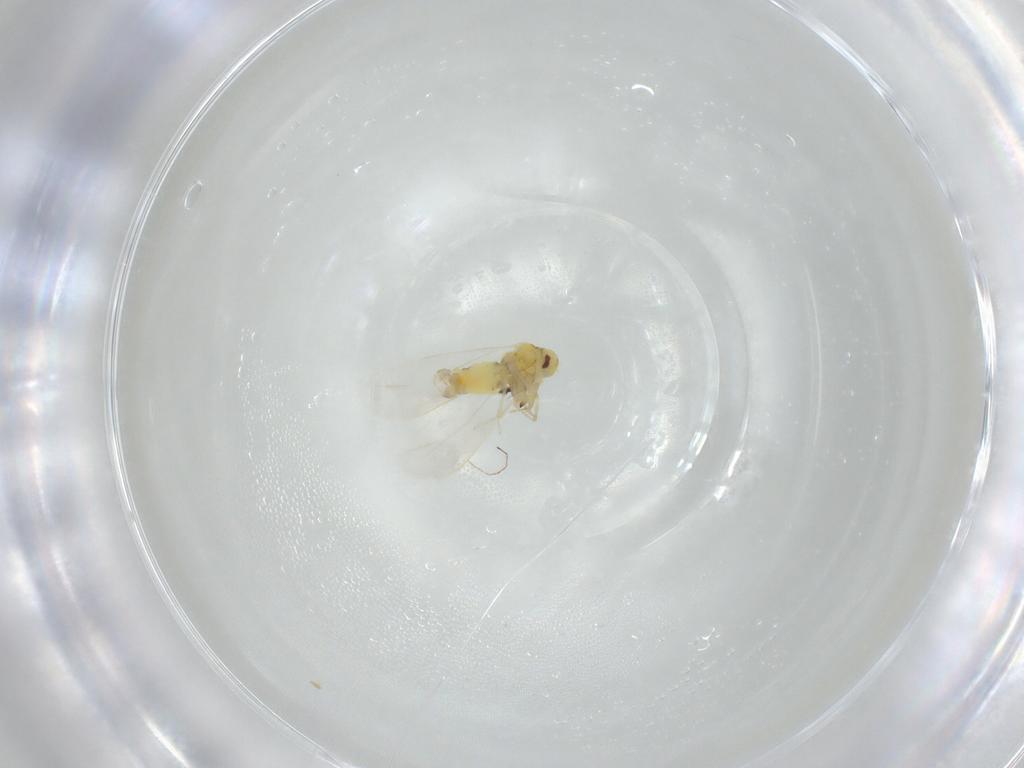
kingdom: Animalia
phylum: Arthropoda
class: Insecta
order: Hemiptera
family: Aleyrodidae
